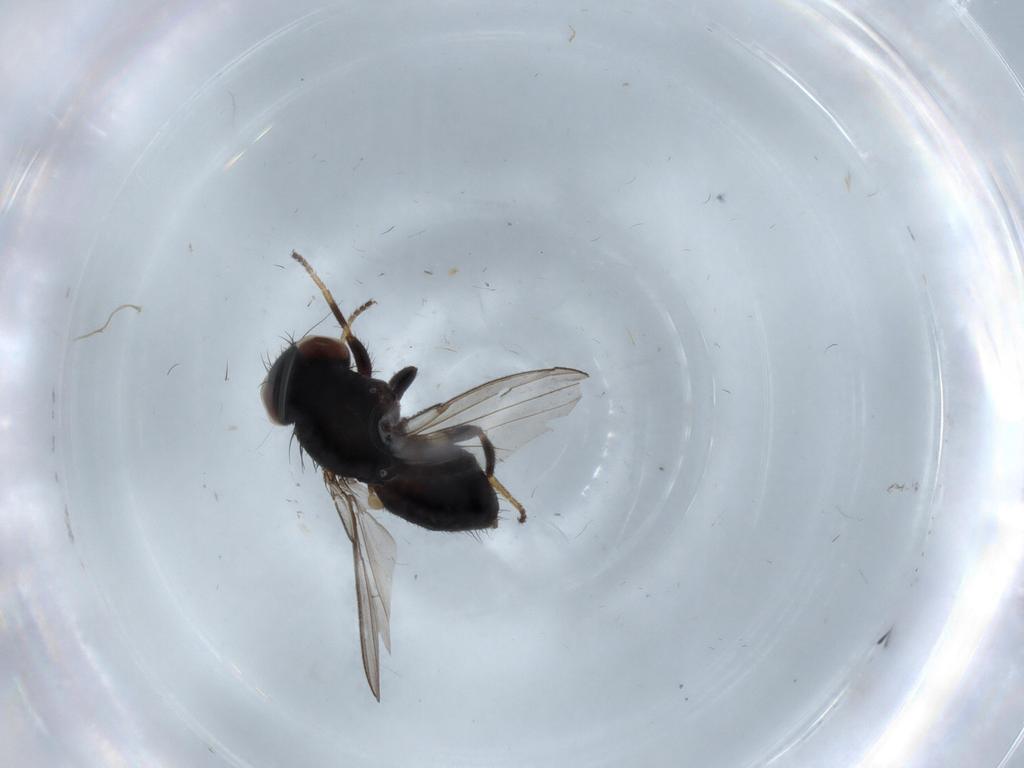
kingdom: Animalia
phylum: Arthropoda
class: Insecta
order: Diptera
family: Milichiidae
